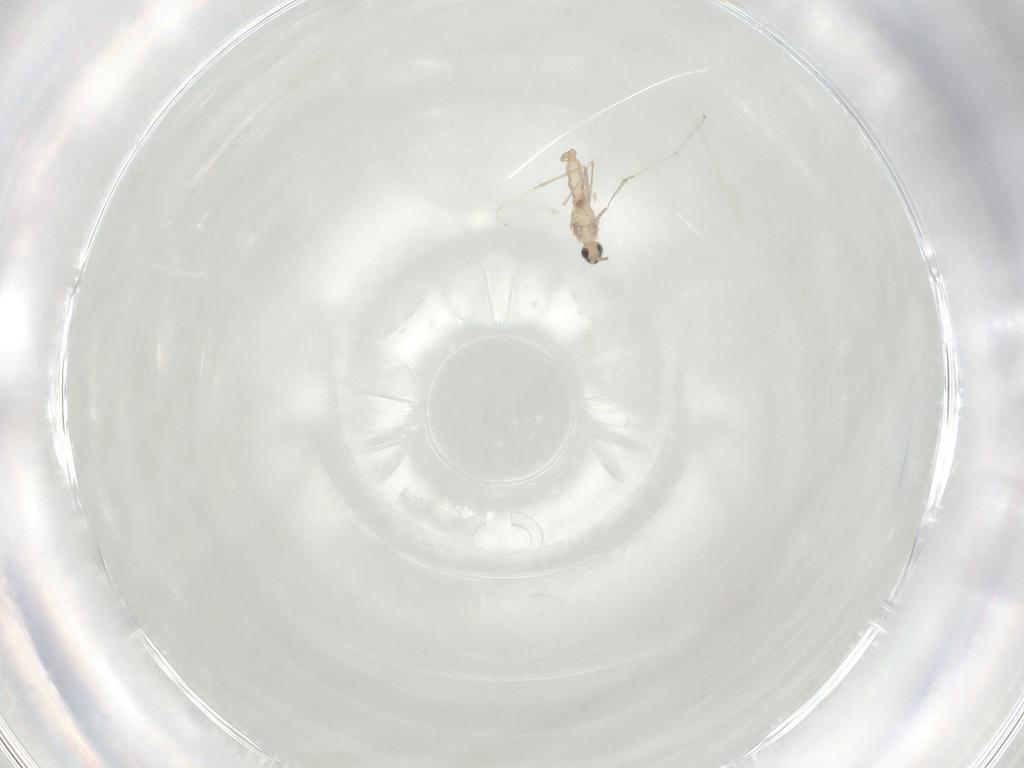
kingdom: Animalia
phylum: Arthropoda
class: Insecta
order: Diptera
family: Cecidomyiidae
